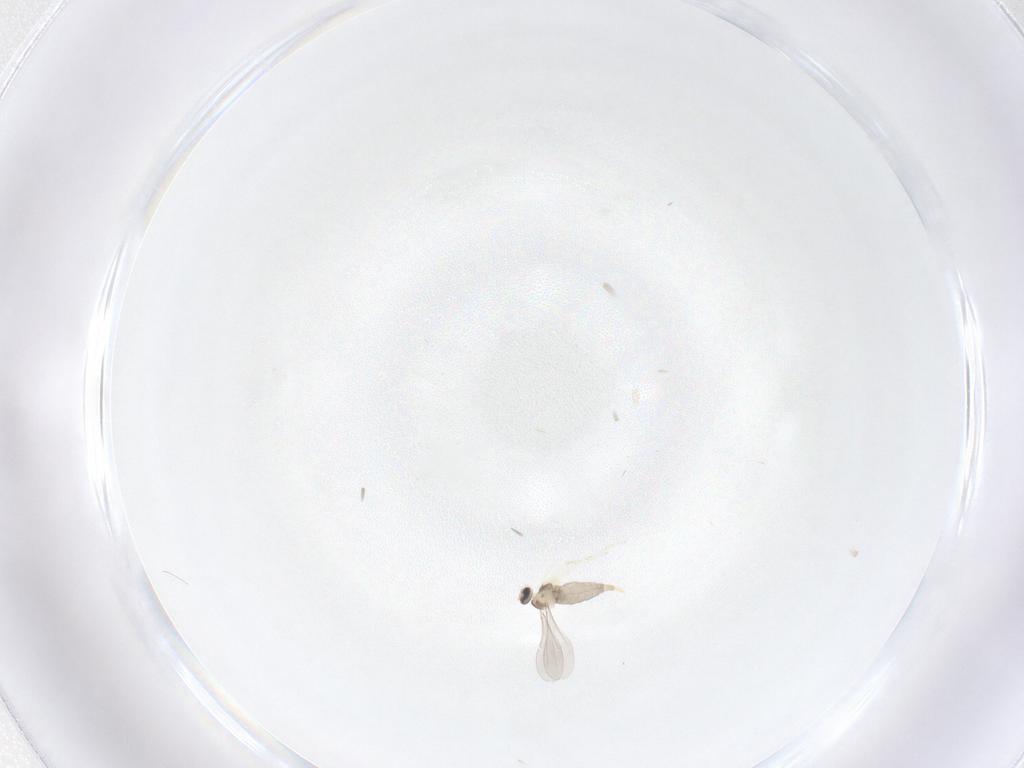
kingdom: Animalia
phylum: Arthropoda
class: Insecta
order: Diptera
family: Cecidomyiidae
